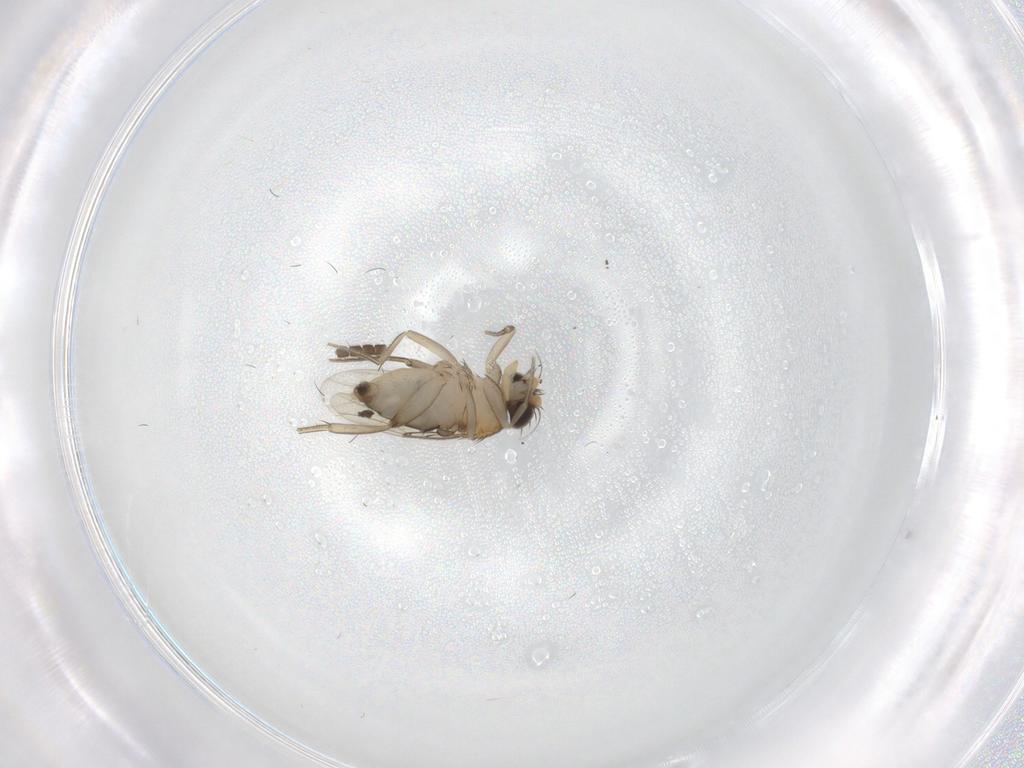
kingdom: Animalia
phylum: Arthropoda
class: Insecta
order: Diptera
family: Phoridae
